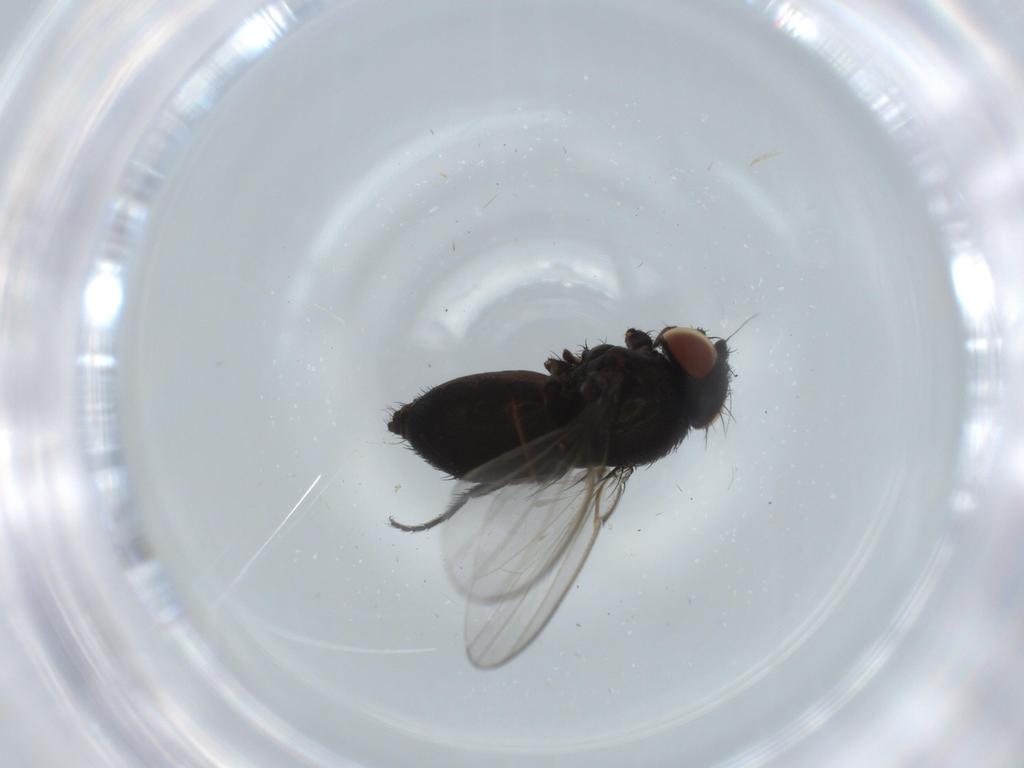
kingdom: Animalia
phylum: Arthropoda
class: Insecta
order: Diptera
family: Milichiidae
